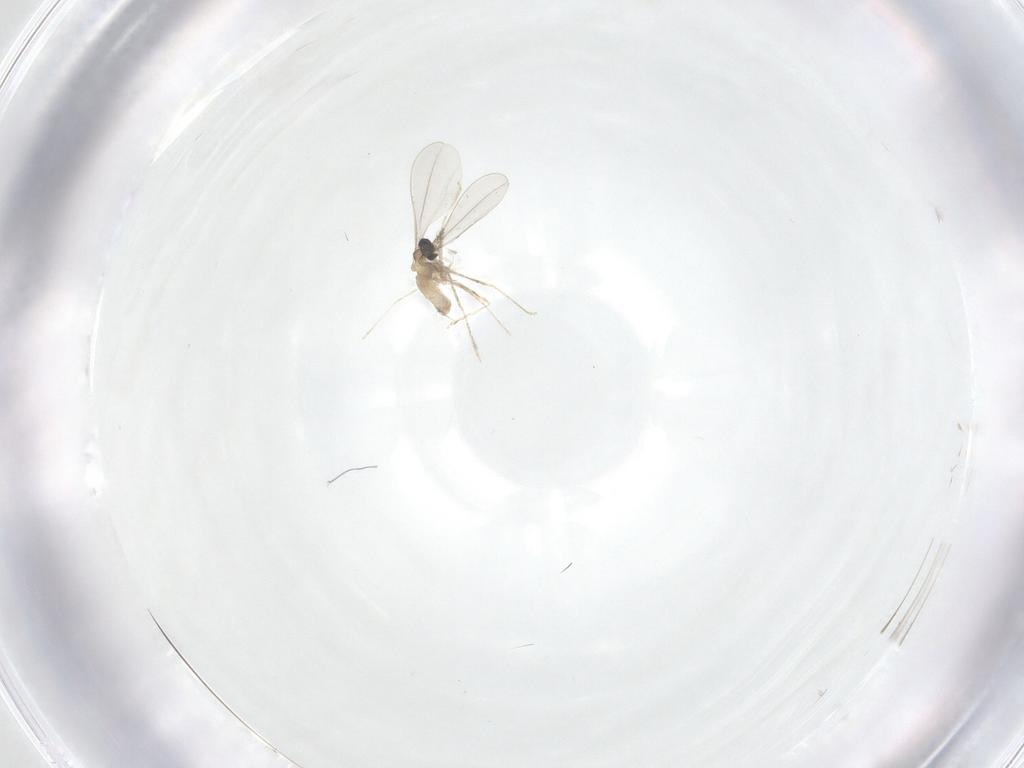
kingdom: Animalia
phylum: Arthropoda
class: Insecta
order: Diptera
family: Cecidomyiidae
